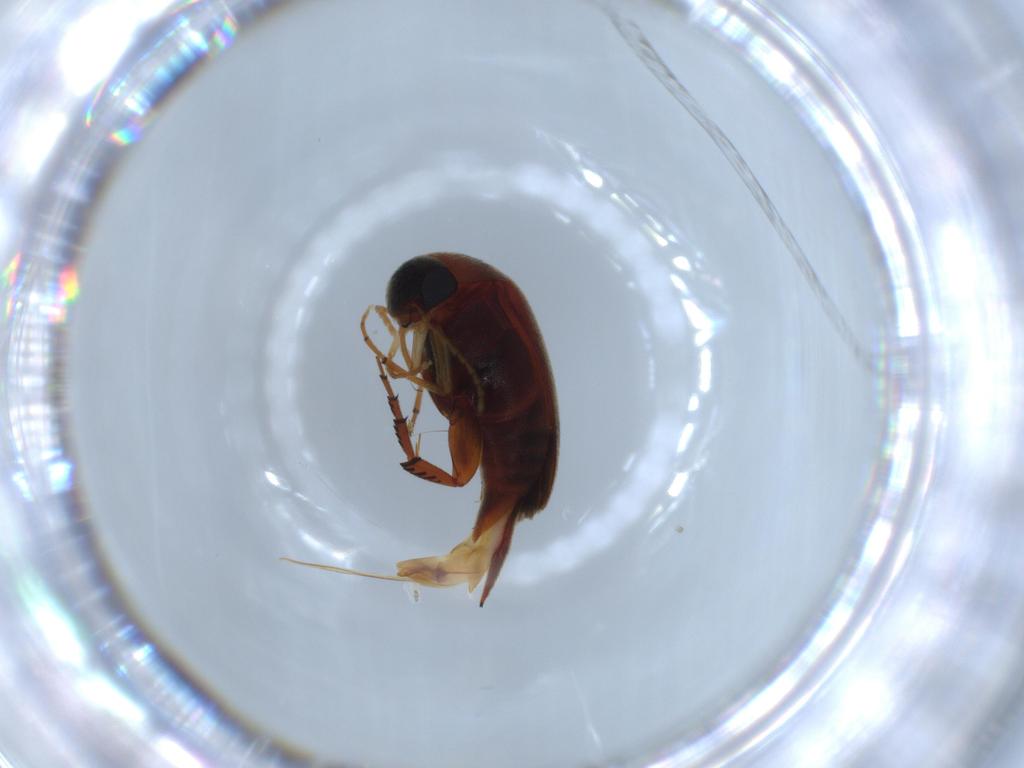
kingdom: Animalia
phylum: Arthropoda
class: Insecta
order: Coleoptera
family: Mordellidae
